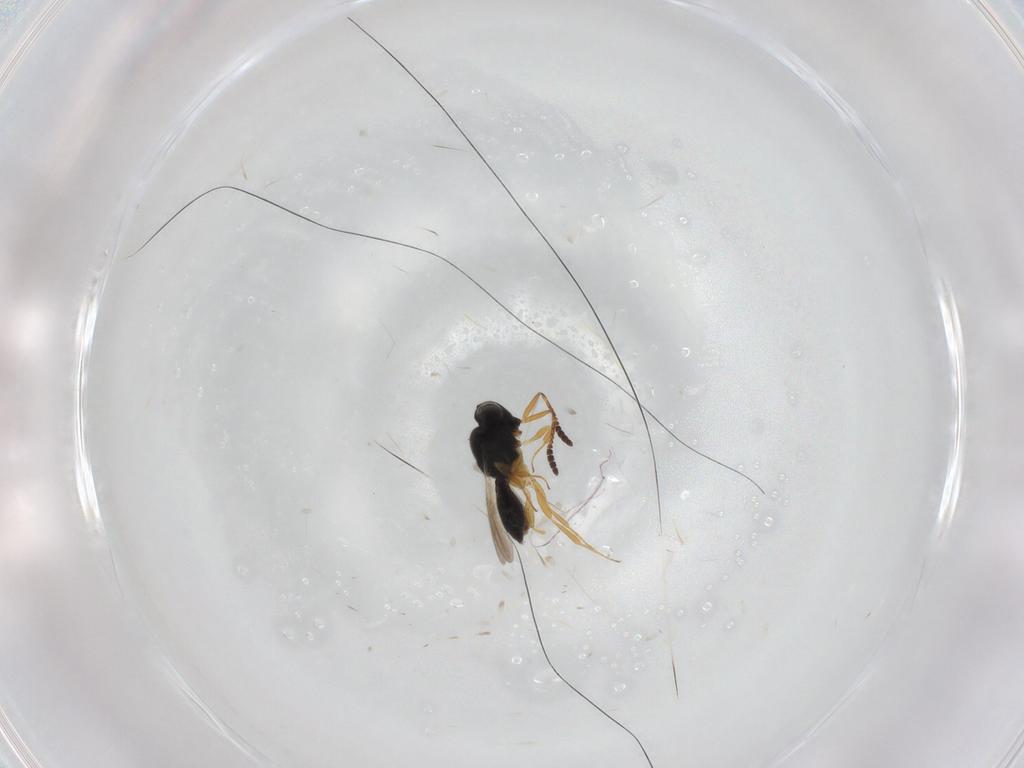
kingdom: Animalia
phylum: Arthropoda
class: Insecta
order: Hymenoptera
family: Scelionidae
